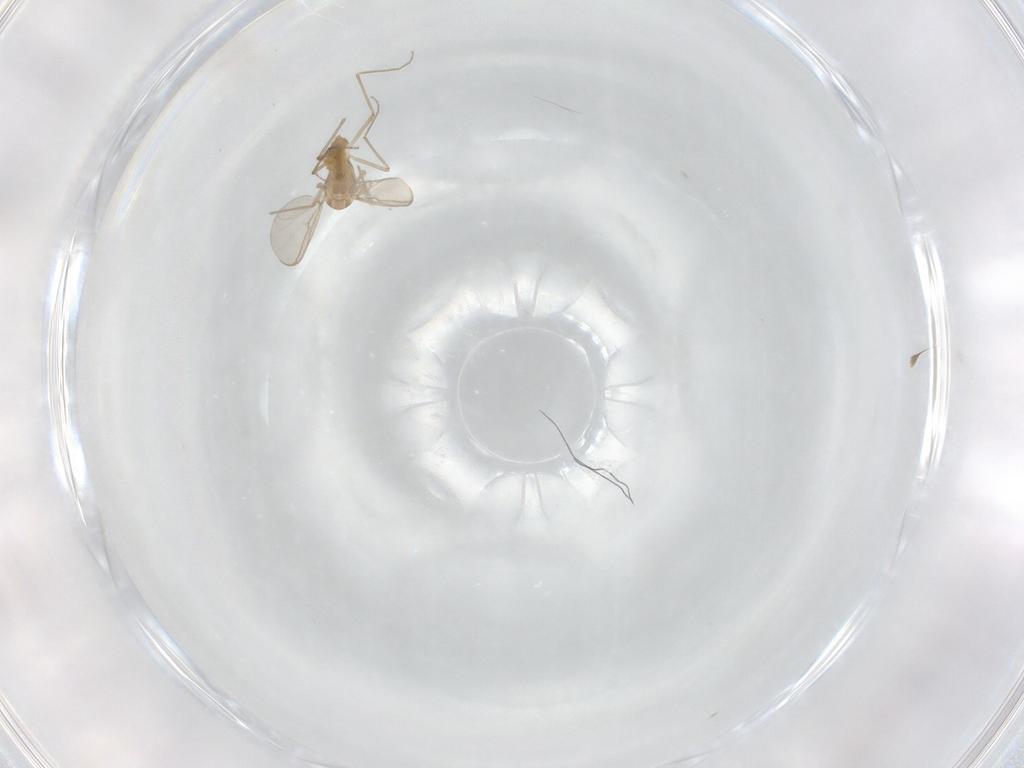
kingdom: Animalia
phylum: Arthropoda
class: Insecta
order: Diptera
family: Chironomidae
